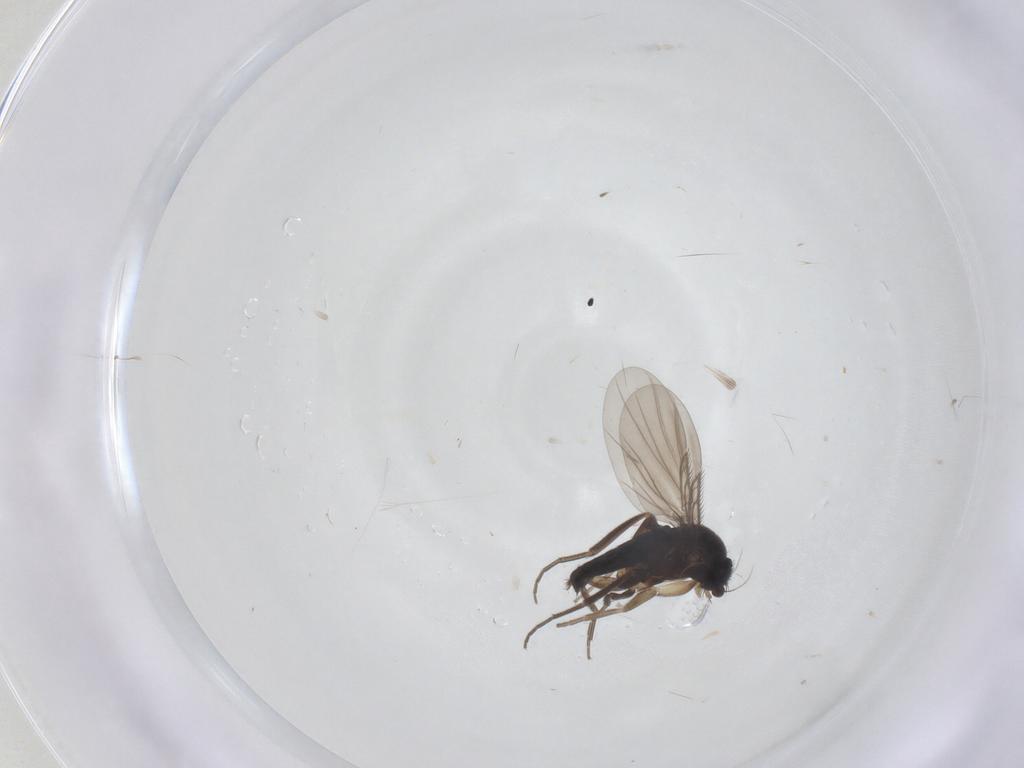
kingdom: Animalia
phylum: Arthropoda
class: Insecta
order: Diptera
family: Phoridae
